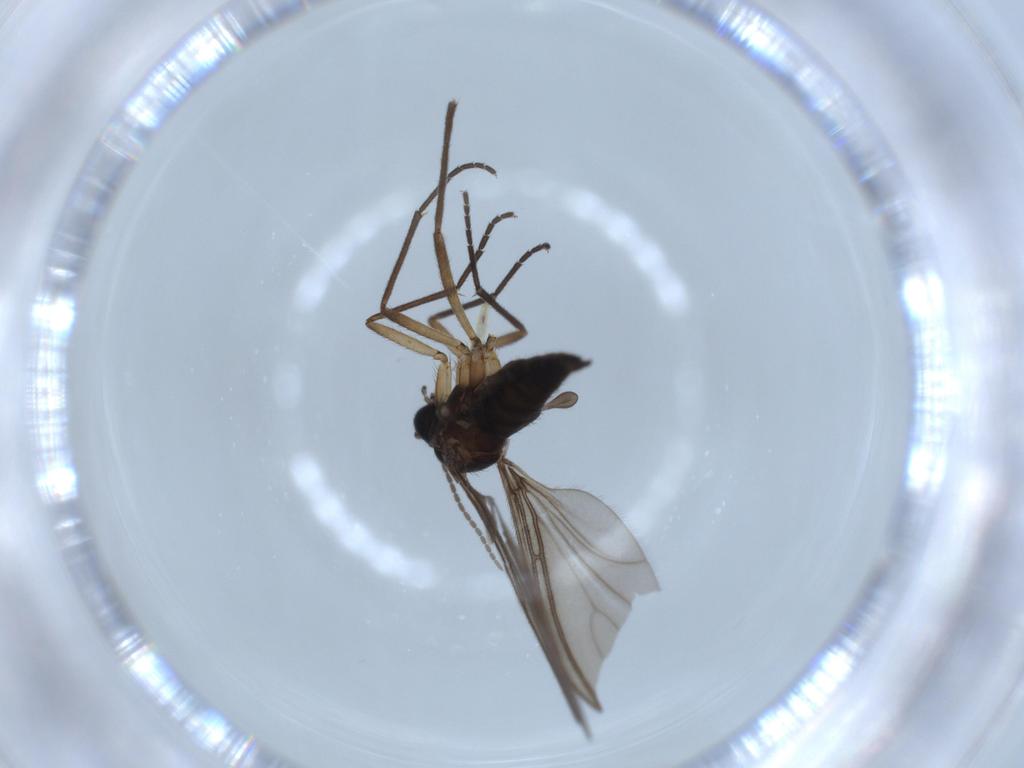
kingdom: Animalia
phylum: Arthropoda
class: Insecta
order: Diptera
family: Sciaridae
